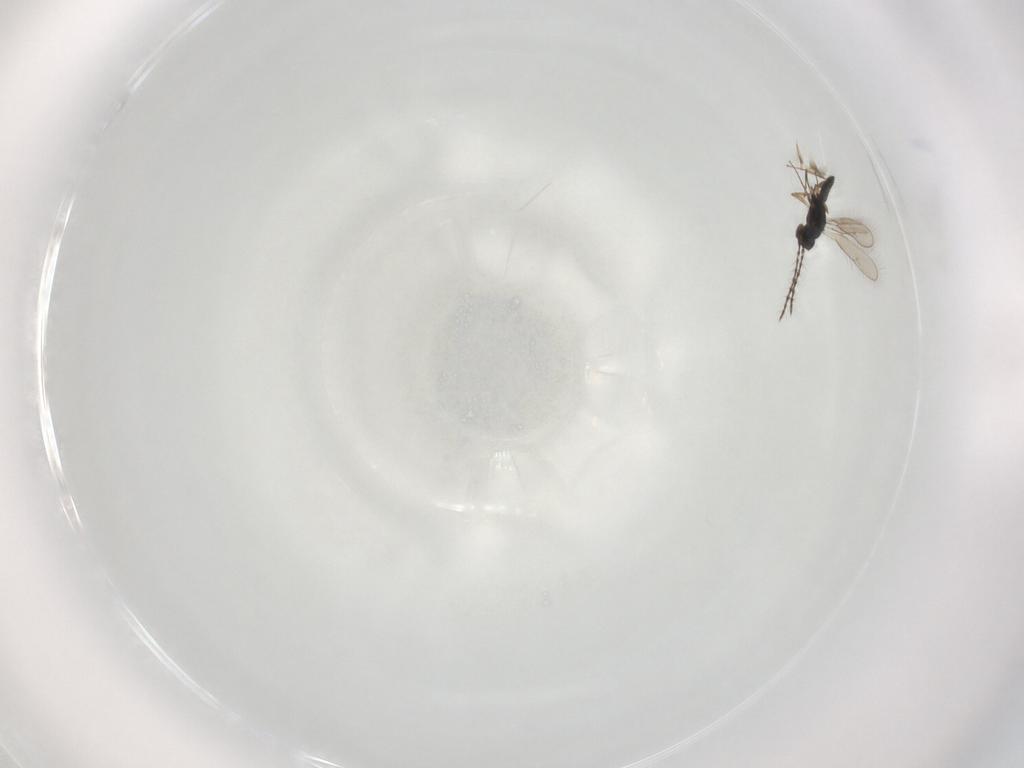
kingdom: Animalia
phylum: Arthropoda
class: Insecta
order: Hymenoptera
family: Pteromalidae
